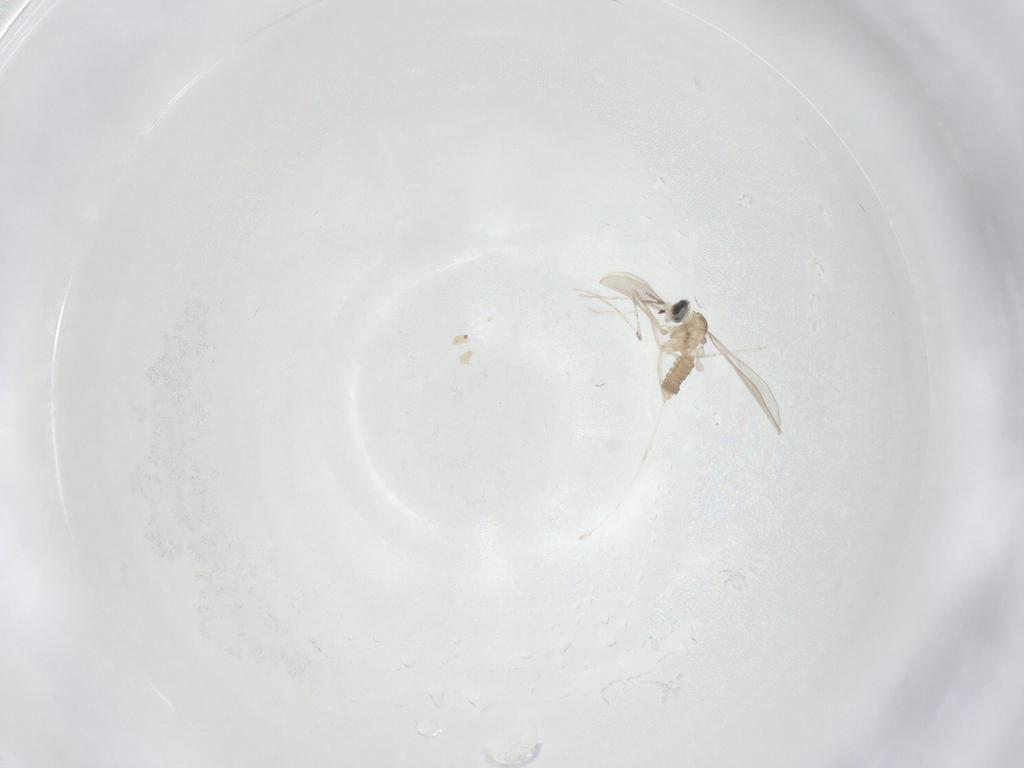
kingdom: Animalia
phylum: Arthropoda
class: Insecta
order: Diptera
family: Cecidomyiidae
